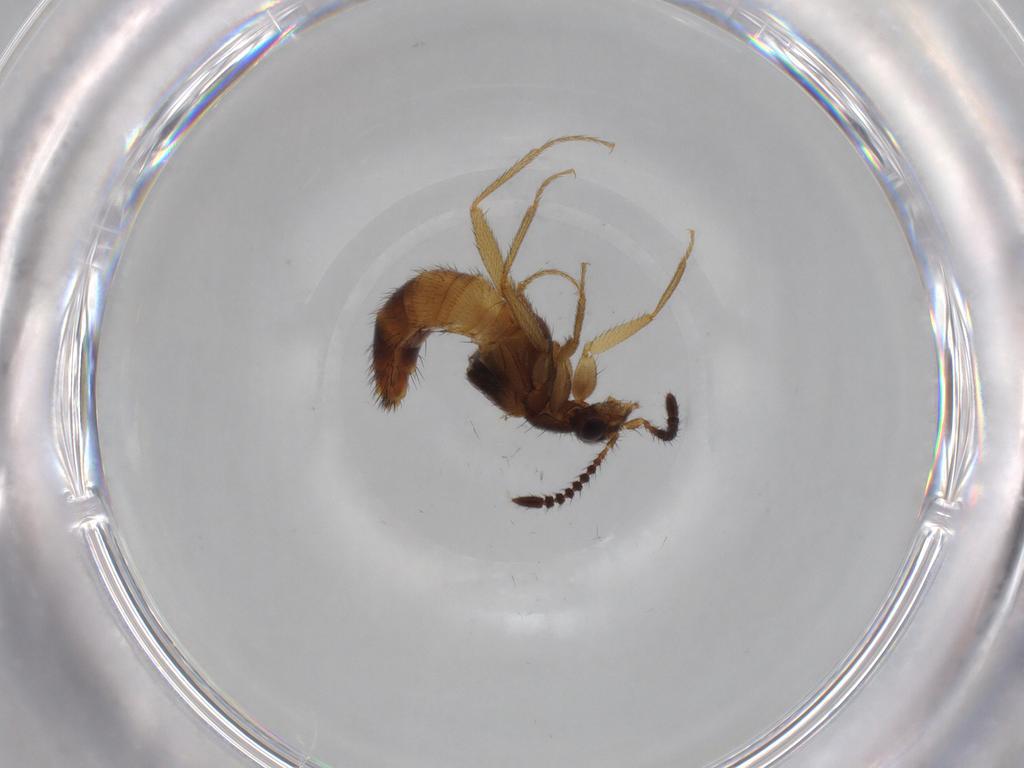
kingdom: Animalia
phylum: Arthropoda
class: Insecta
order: Coleoptera
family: Staphylinidae
